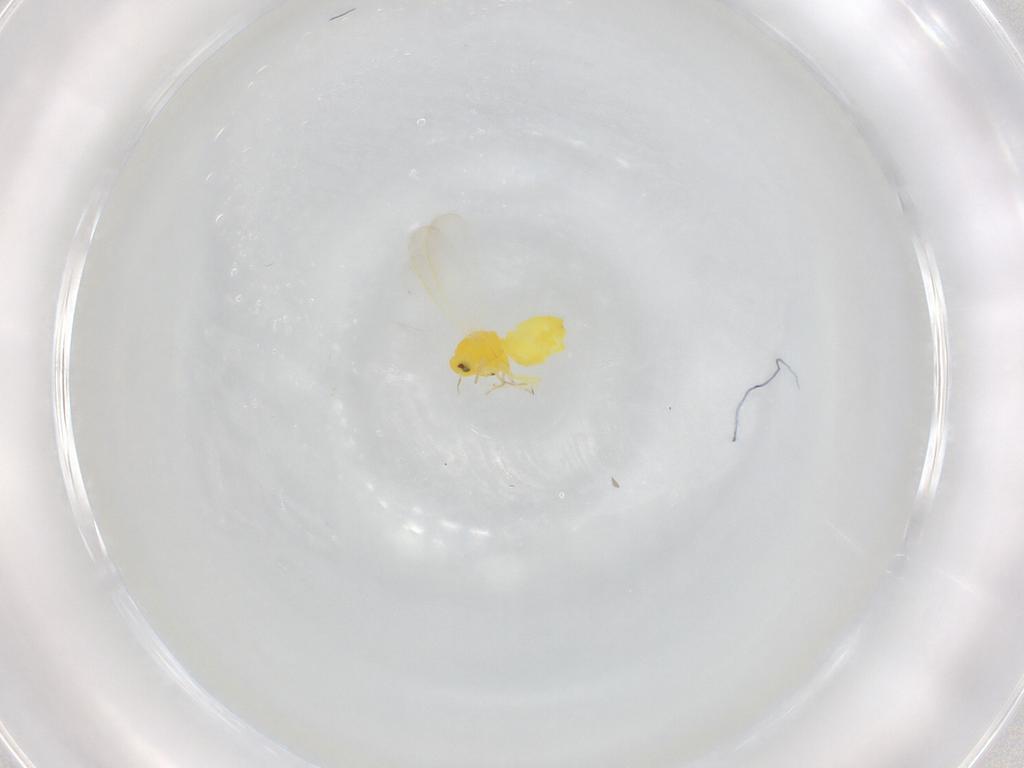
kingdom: Animalia
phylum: Arthropoda
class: Insecta
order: Hemiptera
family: Aleyrodidae
